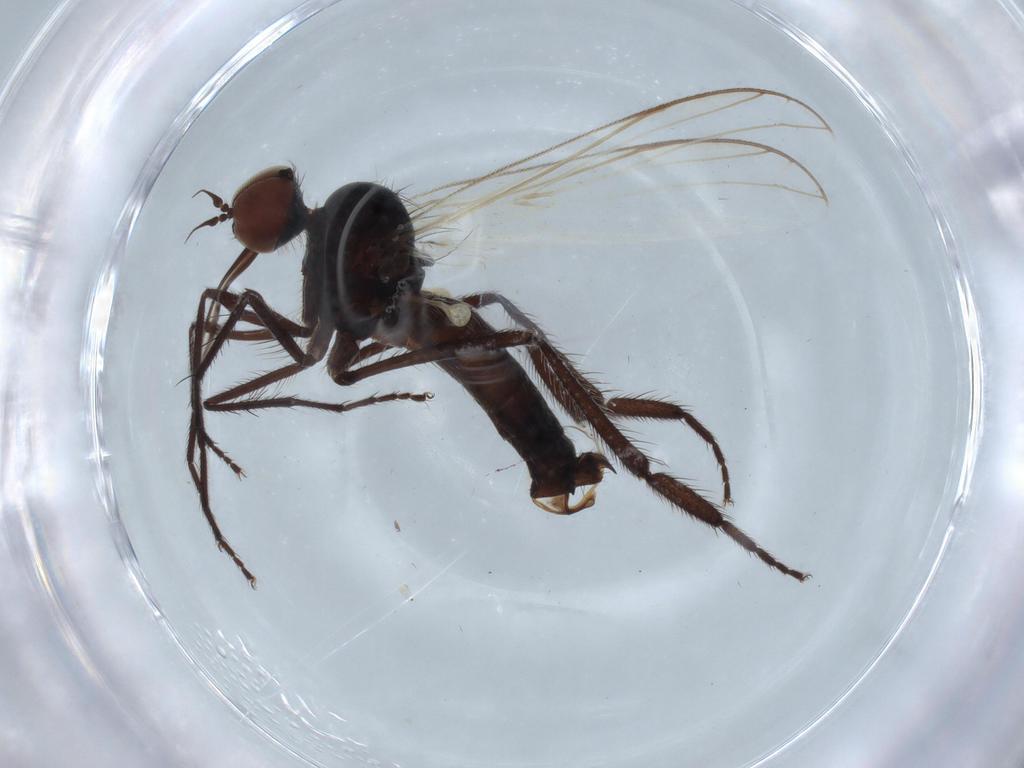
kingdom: Animalia
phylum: Arthropoda
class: Insecta
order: Diptera
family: Empididae
